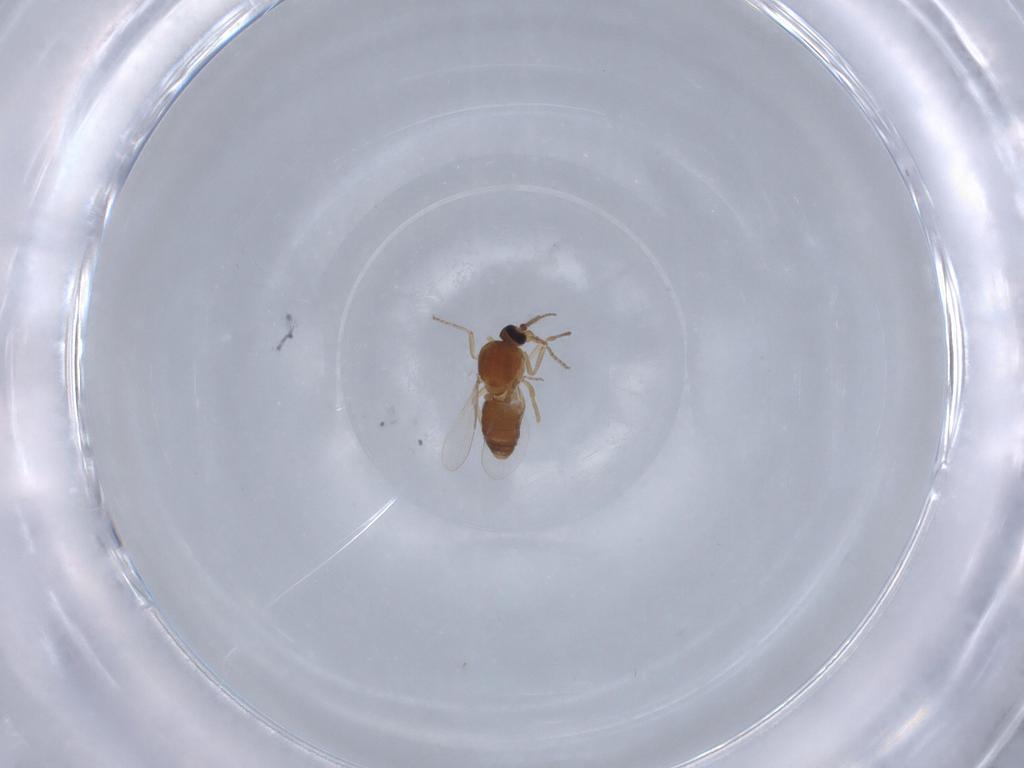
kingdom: Animalia
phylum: Arthropoda
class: Insecta
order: Diptera
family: Ceratopogonidae
